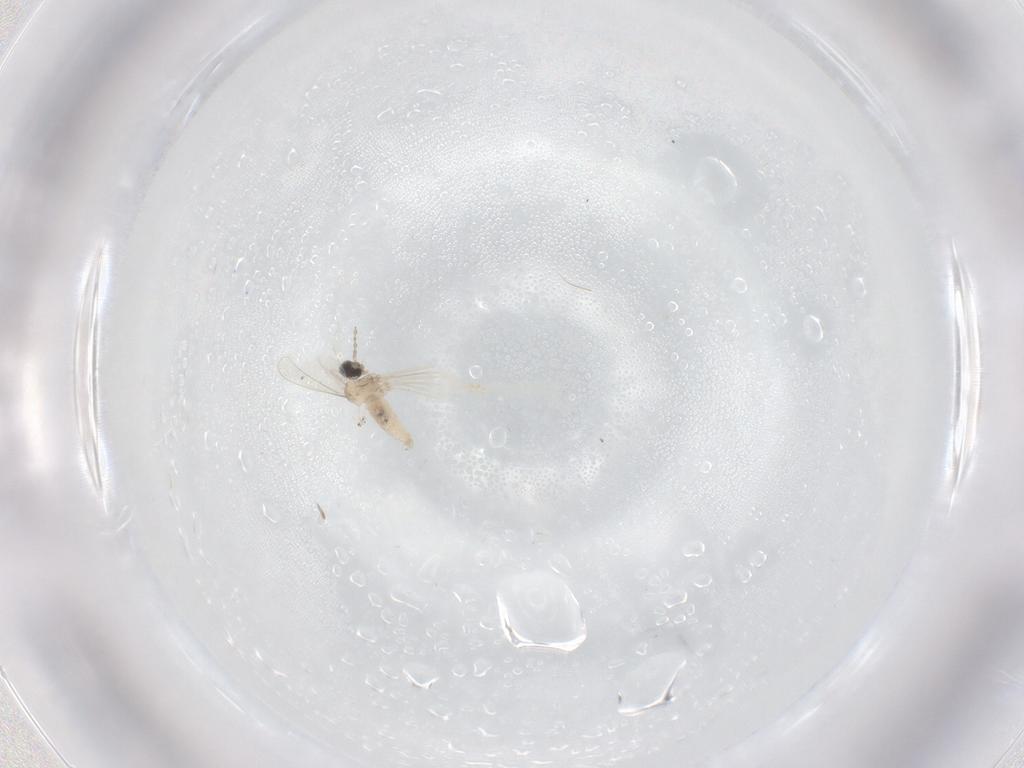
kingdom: Animalia
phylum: Arthropoda
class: Insecta
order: Diptera
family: Cecidomyiidae
